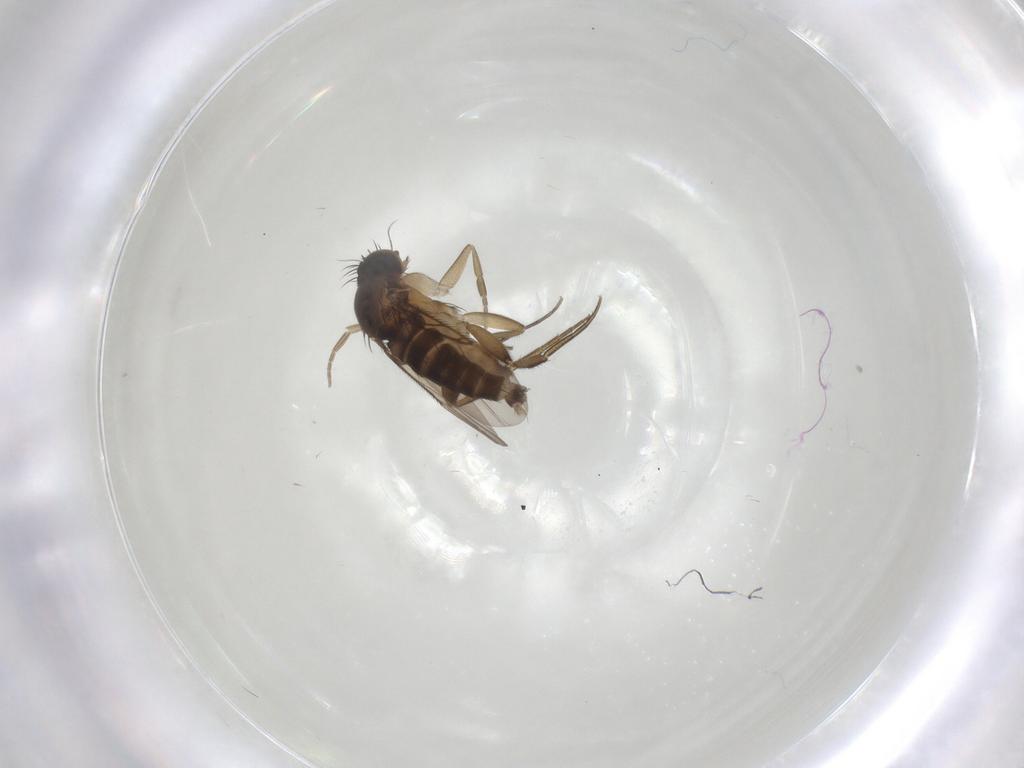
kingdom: Animalia
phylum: Arthropoda
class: Insecta
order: Diptera
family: Phoridae
